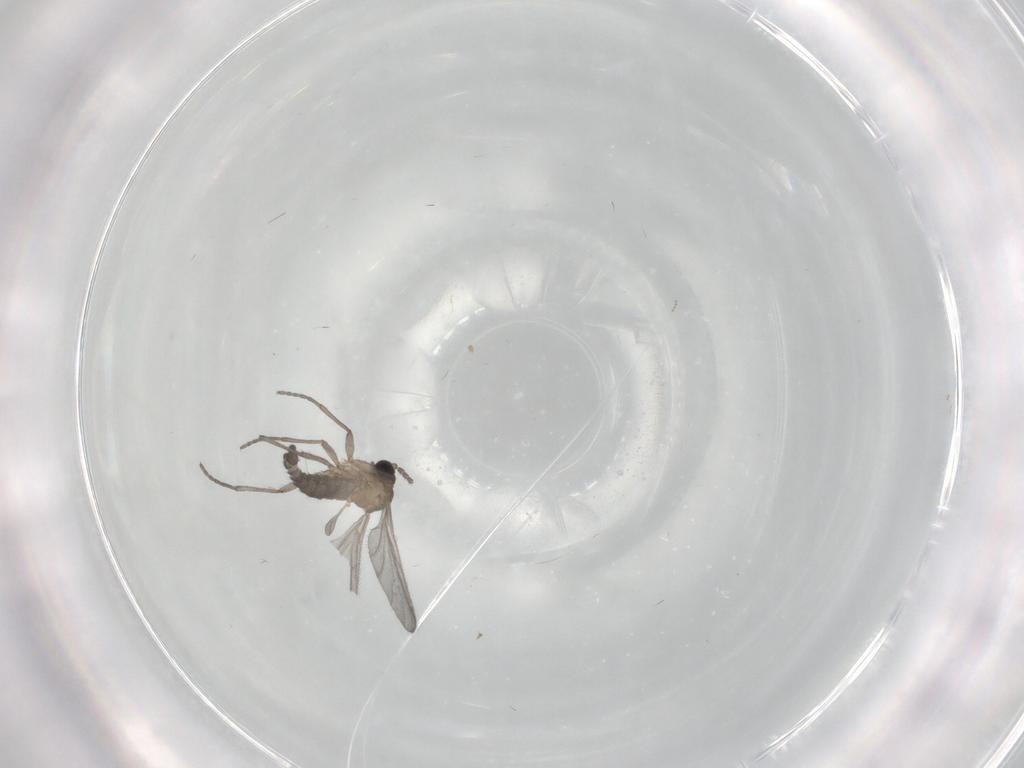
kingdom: Animalia
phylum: Arthropoda
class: Insecta
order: Diptera
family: Sciaridae
